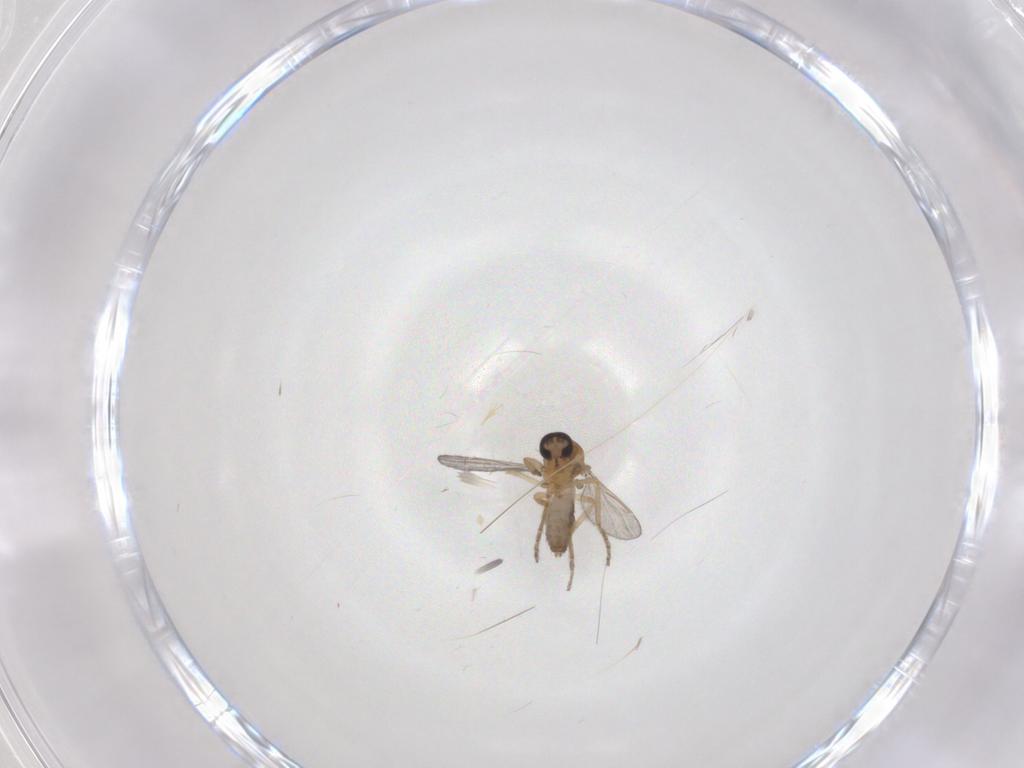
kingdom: Animalia
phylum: Arthropoda
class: Insecta
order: Diptera
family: Ceratopogonidae
